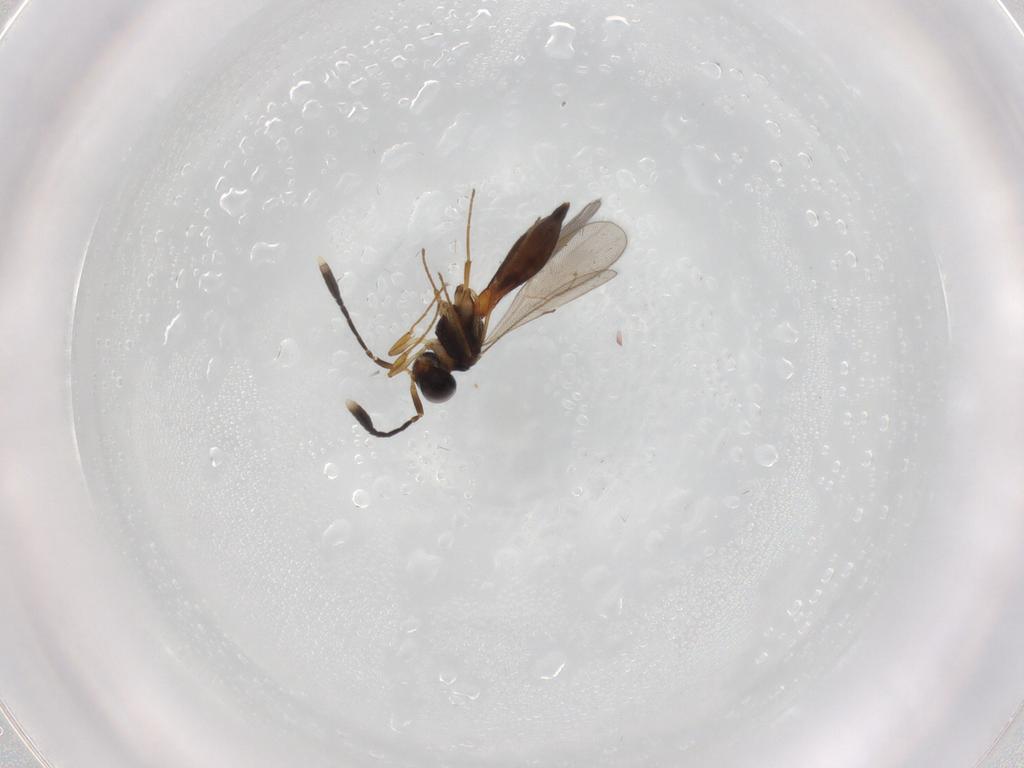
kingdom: Animalia
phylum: Arthropoda
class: Insecta
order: Hymenoptera
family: Scelionidae
